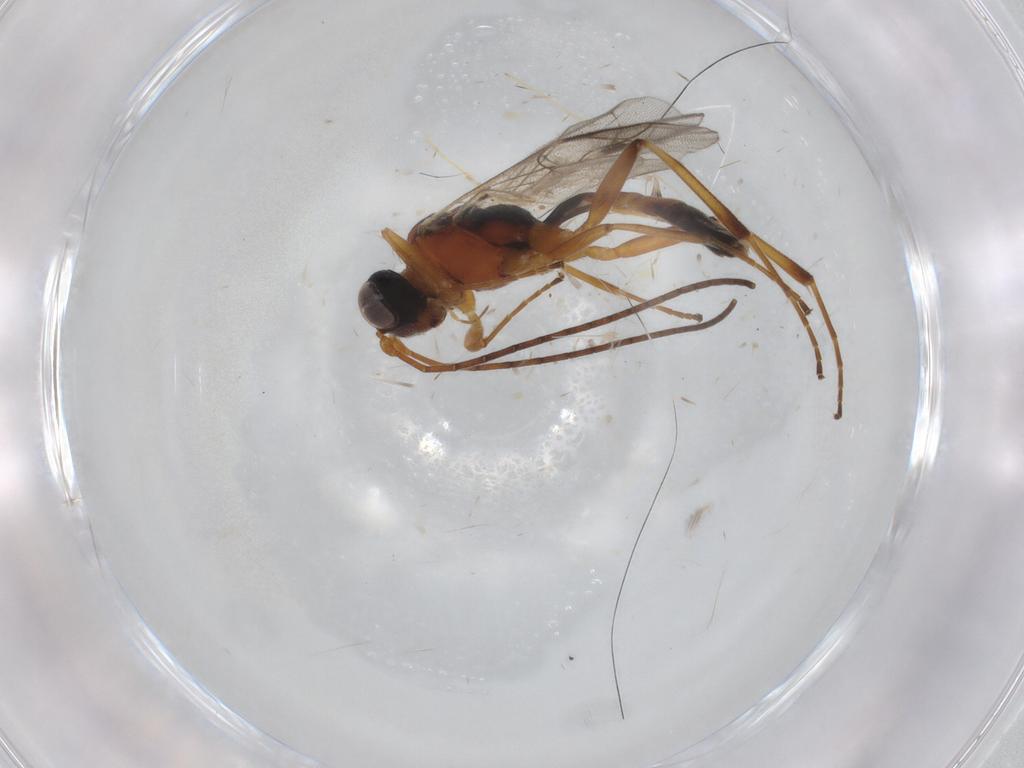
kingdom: Animalia
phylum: Arthropoda
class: Insecta
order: Hymenoptera
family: Ichneumonidae
